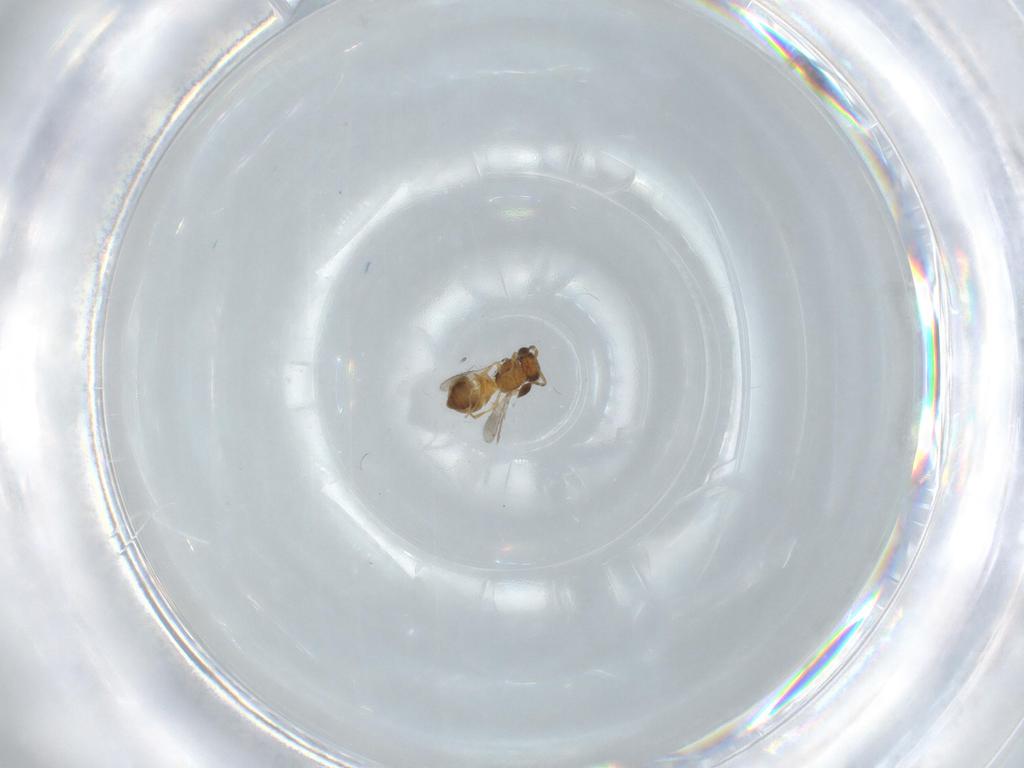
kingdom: Animalia
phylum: Arthropoda
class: Insecta
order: Hymenoptera
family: Scelionidae
